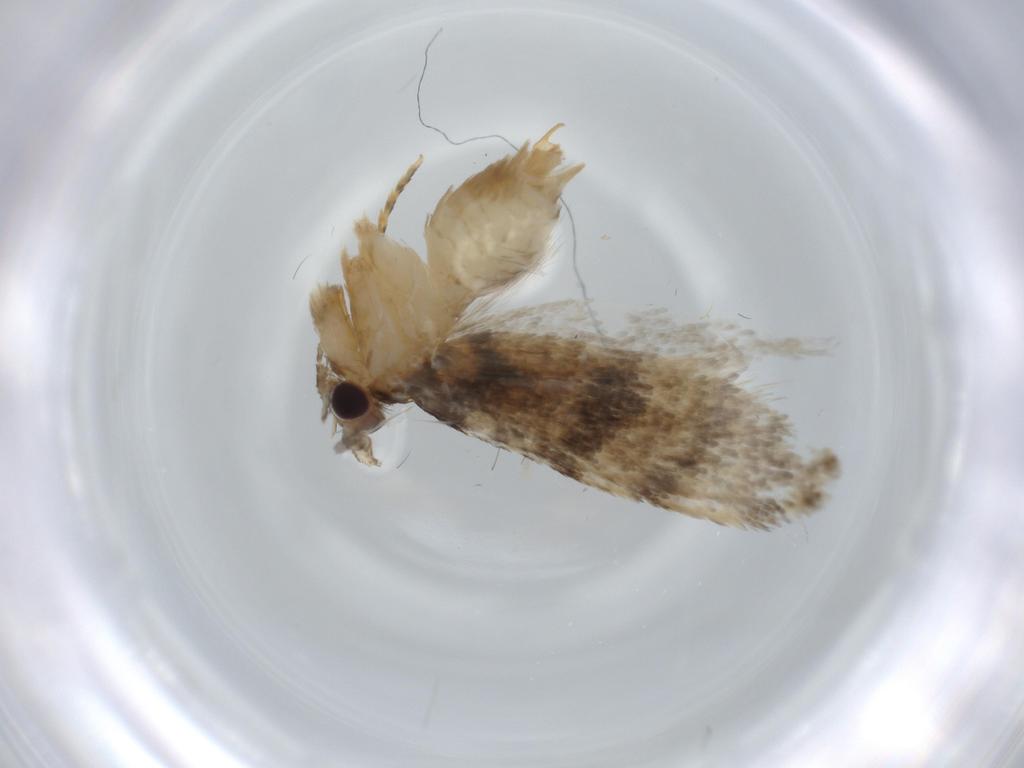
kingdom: Animalia
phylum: Arthropoda
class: Insecta
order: Lepidoptera
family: Tineidae
